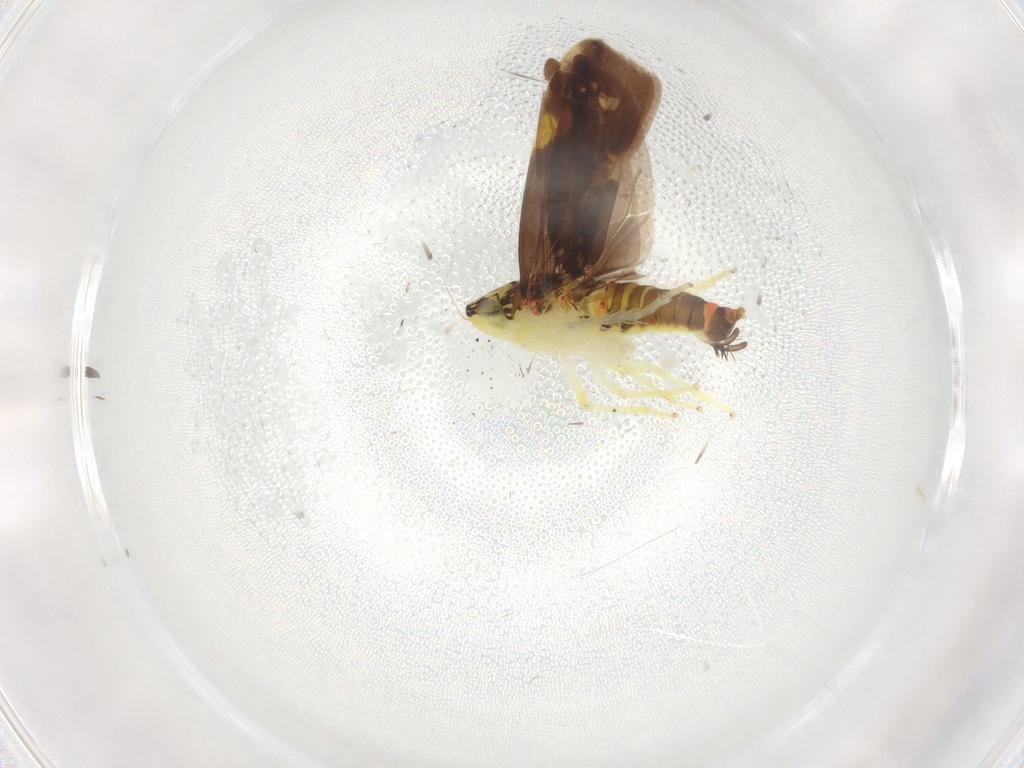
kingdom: Animalia
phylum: Arthropoda
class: Insecta
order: Hemiptera
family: Cicadellidae
